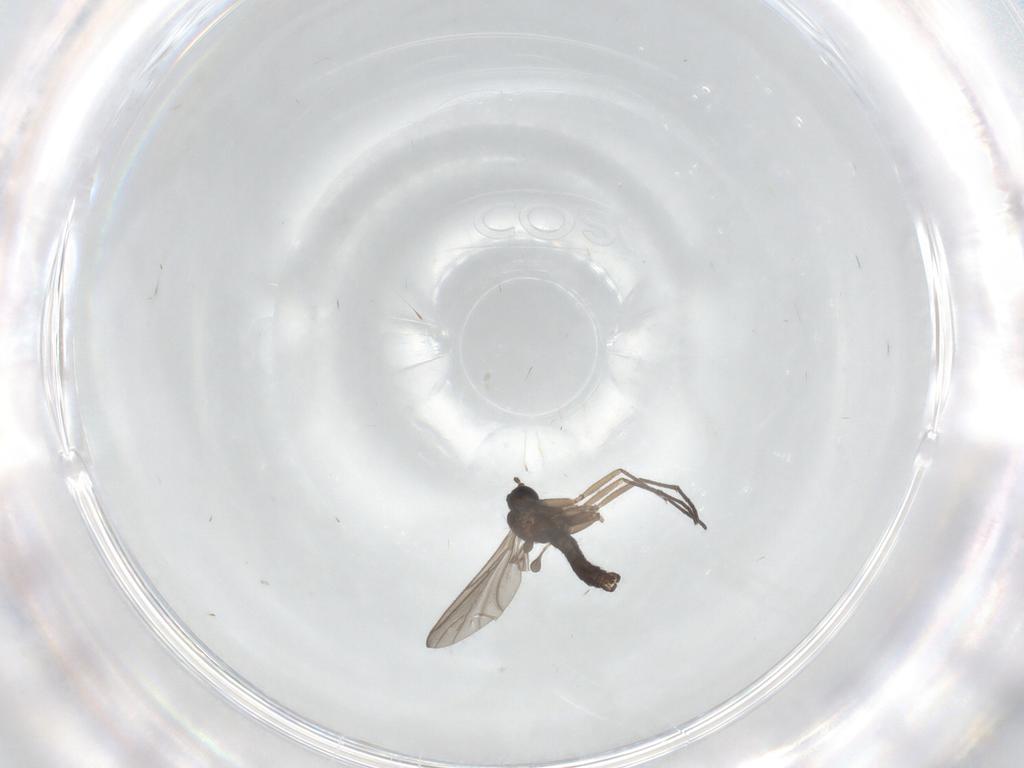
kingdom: Animalia
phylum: Arthropoda
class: Insecta
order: Diptera
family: Sciaridae
